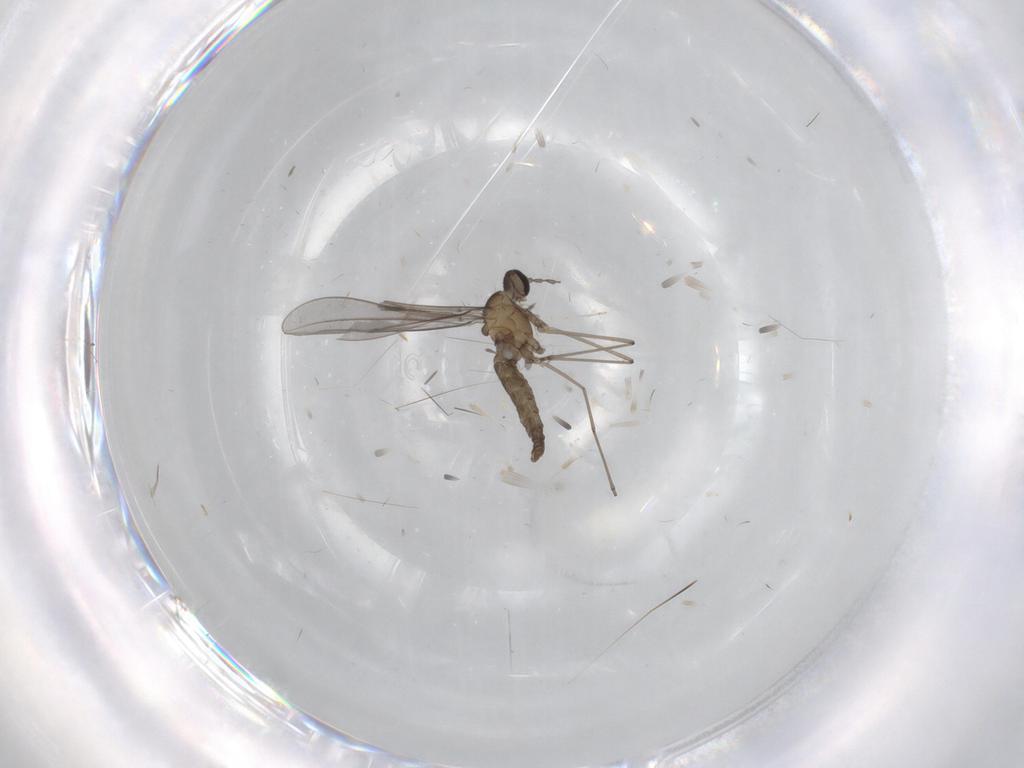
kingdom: Animalia
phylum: Arthropoda
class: Insecta
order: Diptera
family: Cecidomyiidae
